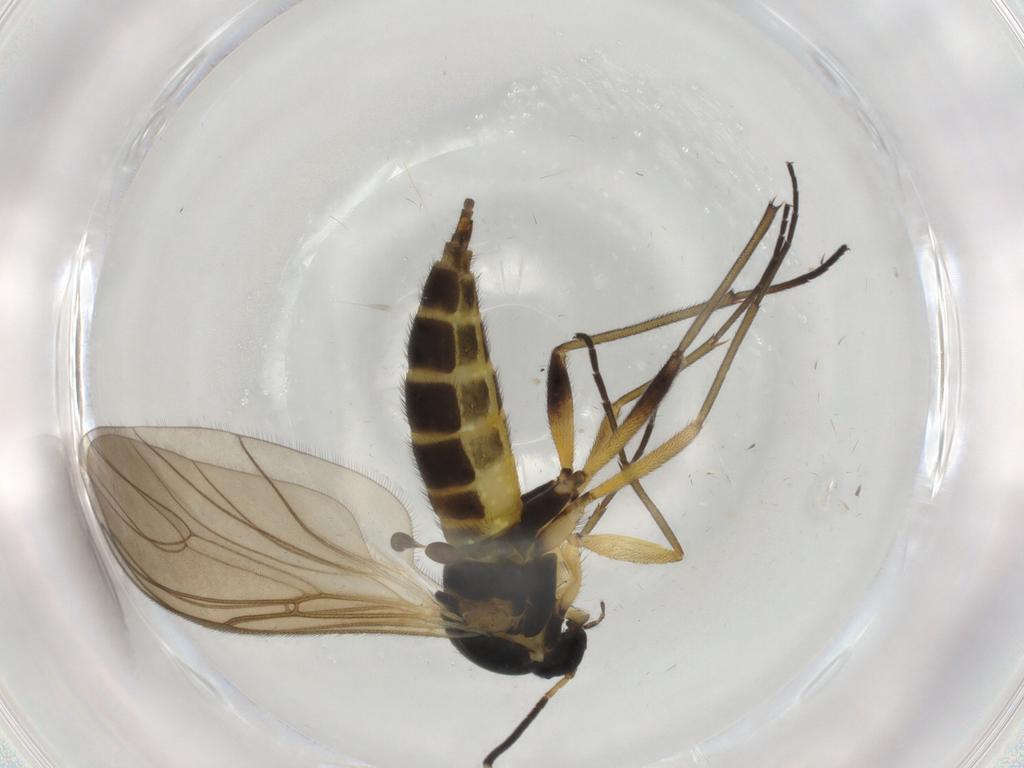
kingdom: Animalia
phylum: Arthropoda
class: Insecta
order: Diptera
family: Sciaridae
